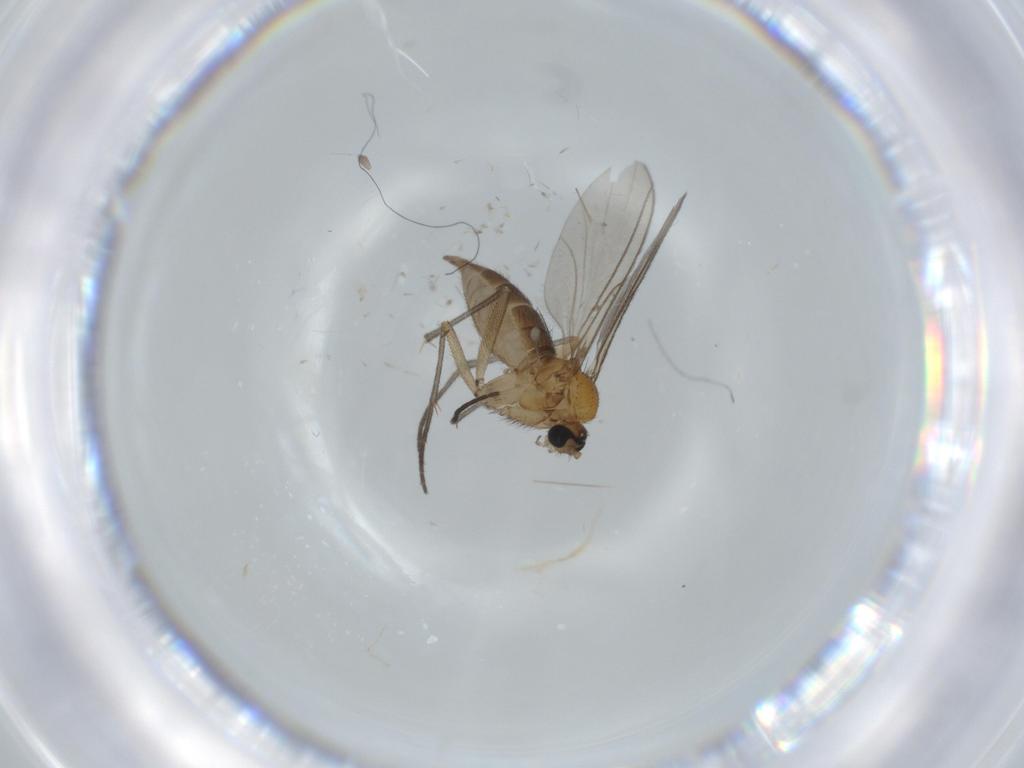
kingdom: Animalia
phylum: Arthropoda
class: Insecta
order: Diptera
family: Sciaridae
